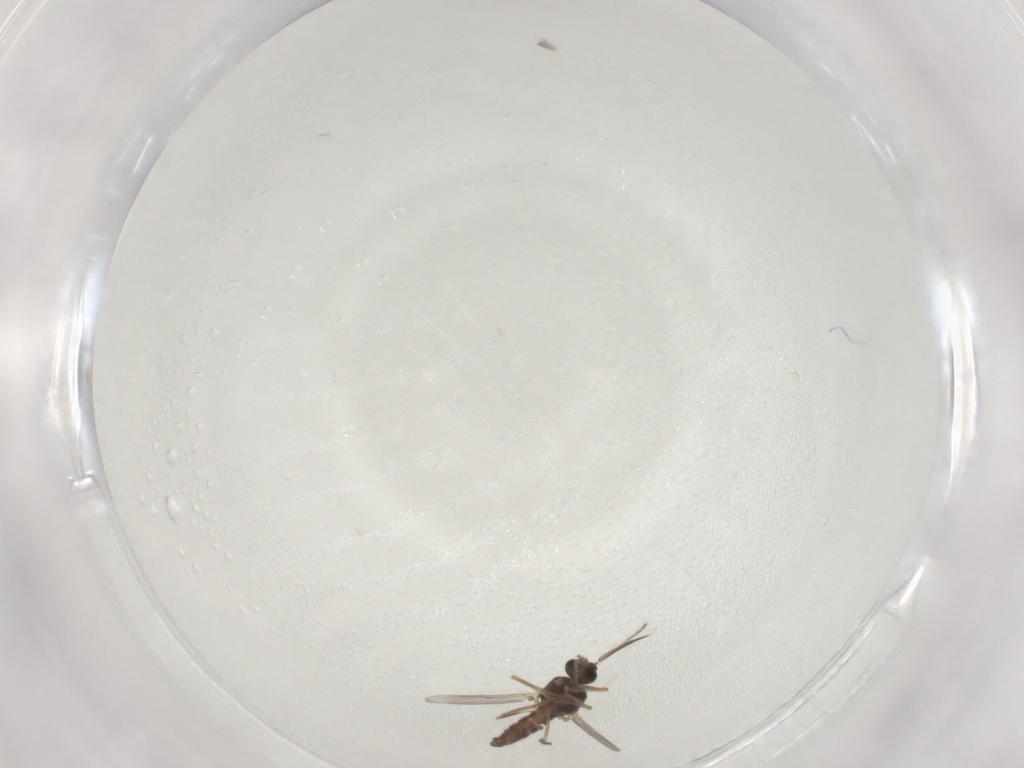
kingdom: Animalia
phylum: Arthropoda
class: Insecta
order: Diptera
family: Ceratopogonidae
